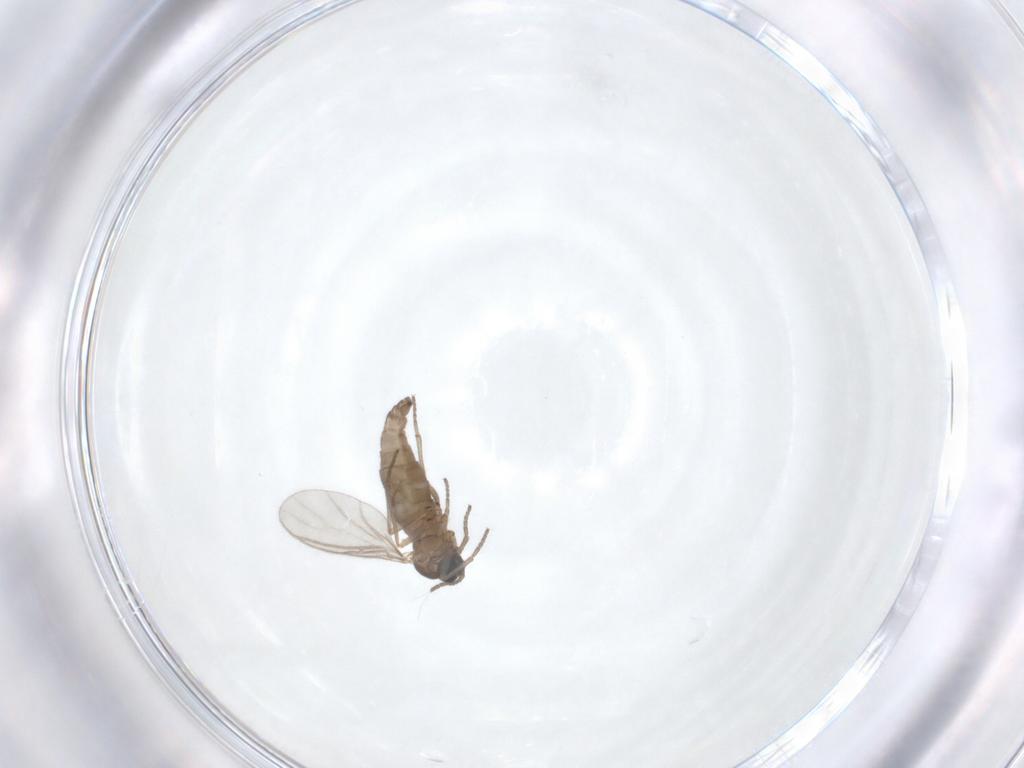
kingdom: Animalia
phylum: Arthropoda
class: Insecta
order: Diptera
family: Sciaridae
